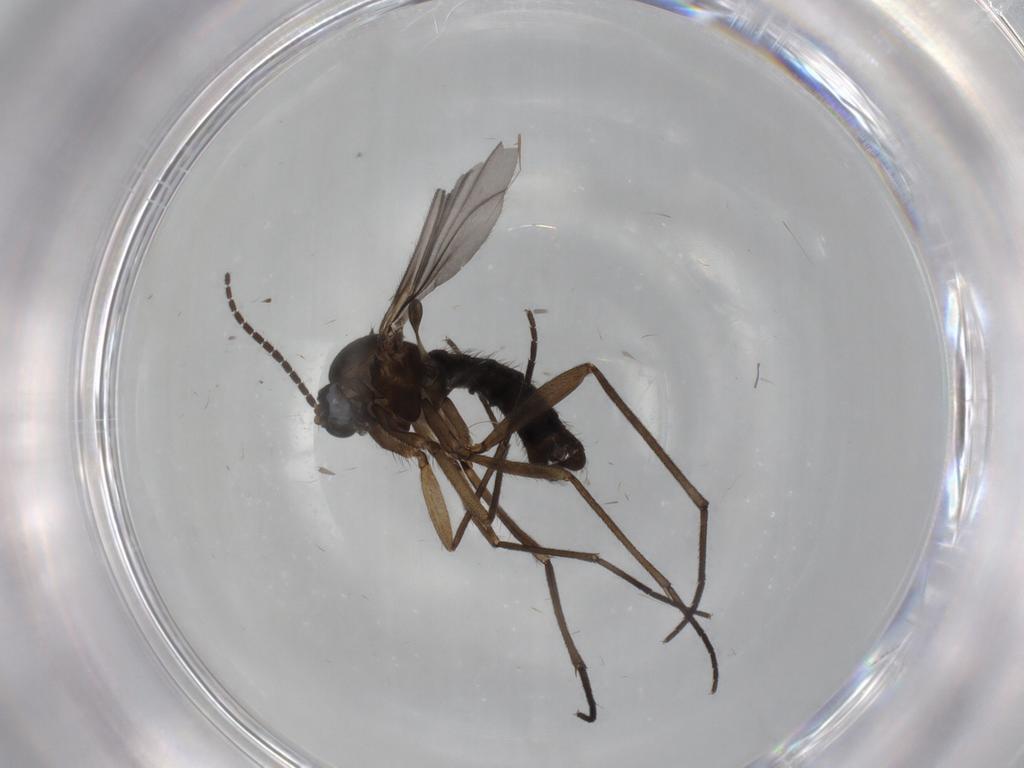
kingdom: Animalia
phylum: Arthropoda
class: Insecta
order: Diptera
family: Sciaridae
